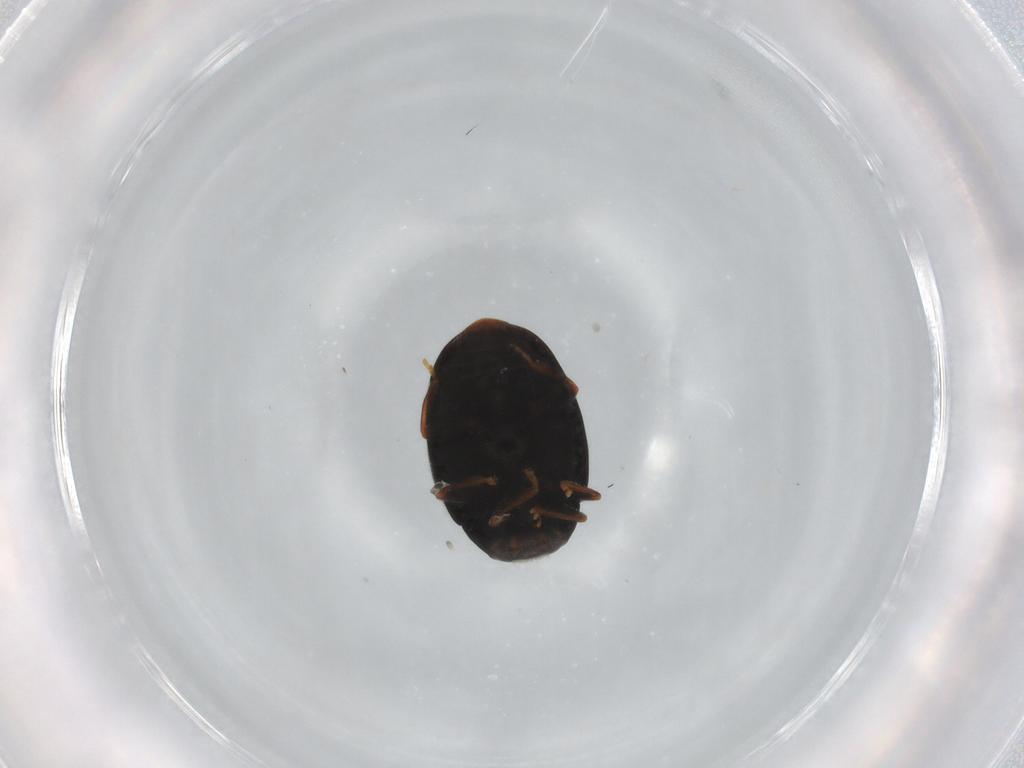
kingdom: Animalia
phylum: Arthropoda
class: Insecta
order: Coleoptera
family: Coccinellidae
